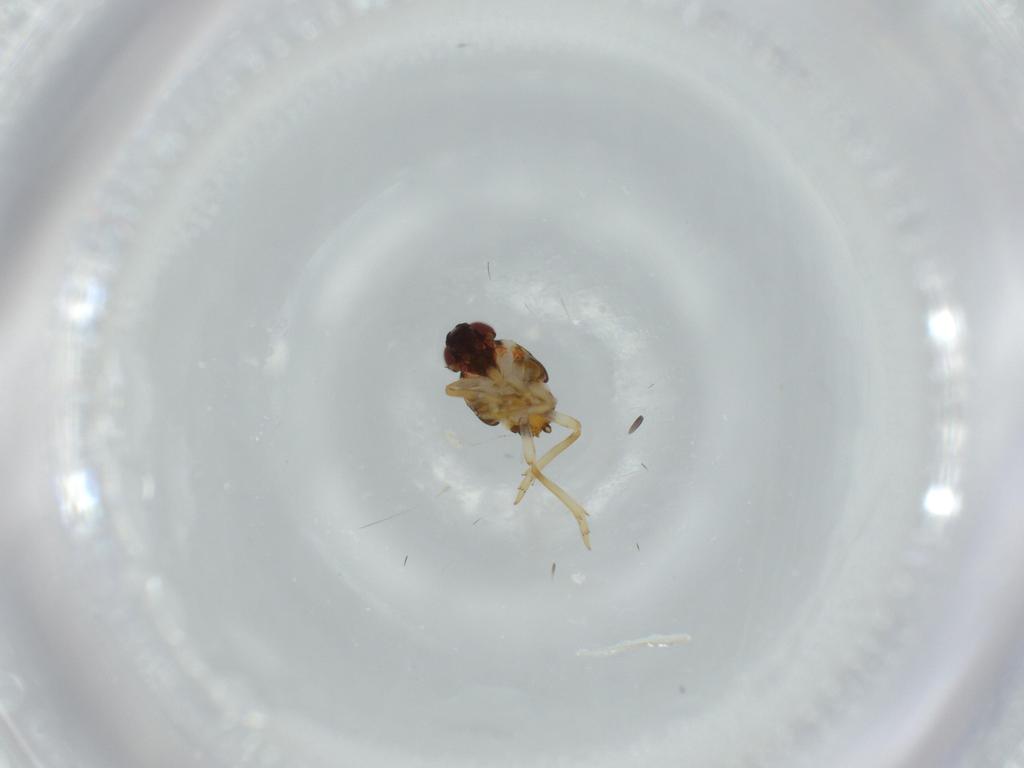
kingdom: Animalia
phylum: Arthropoda
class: Insecta
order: Hemiptera
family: Issidae
